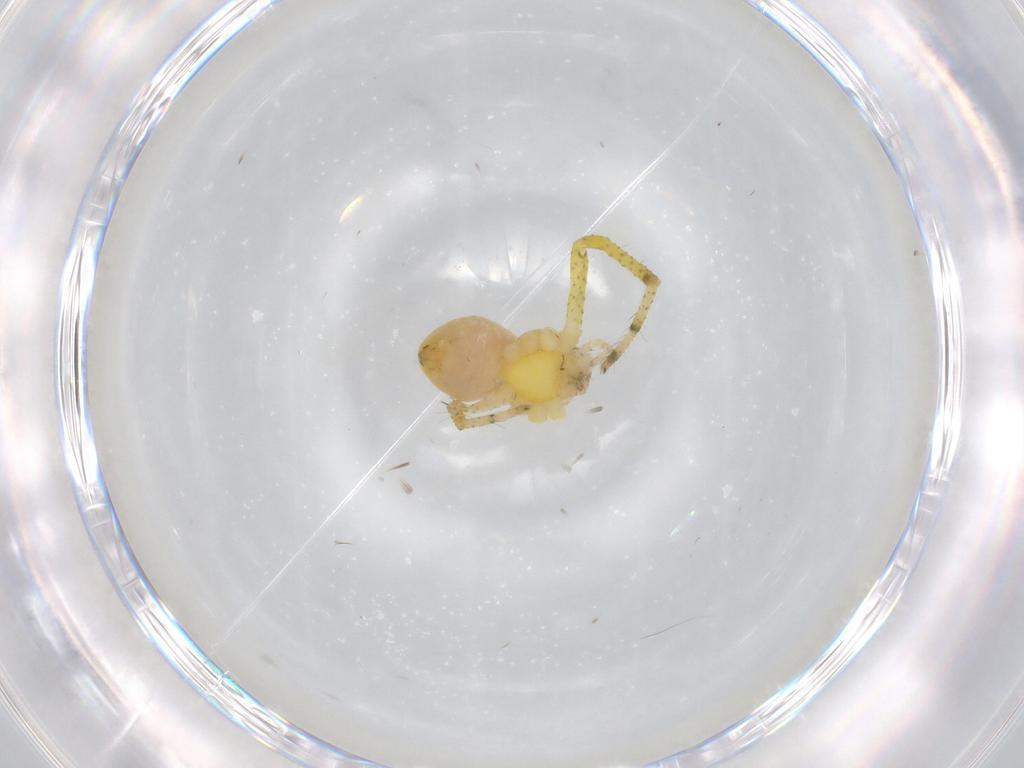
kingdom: Animalia
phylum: Arthropoda
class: Arachnida
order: Araneae
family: Thomisidae
